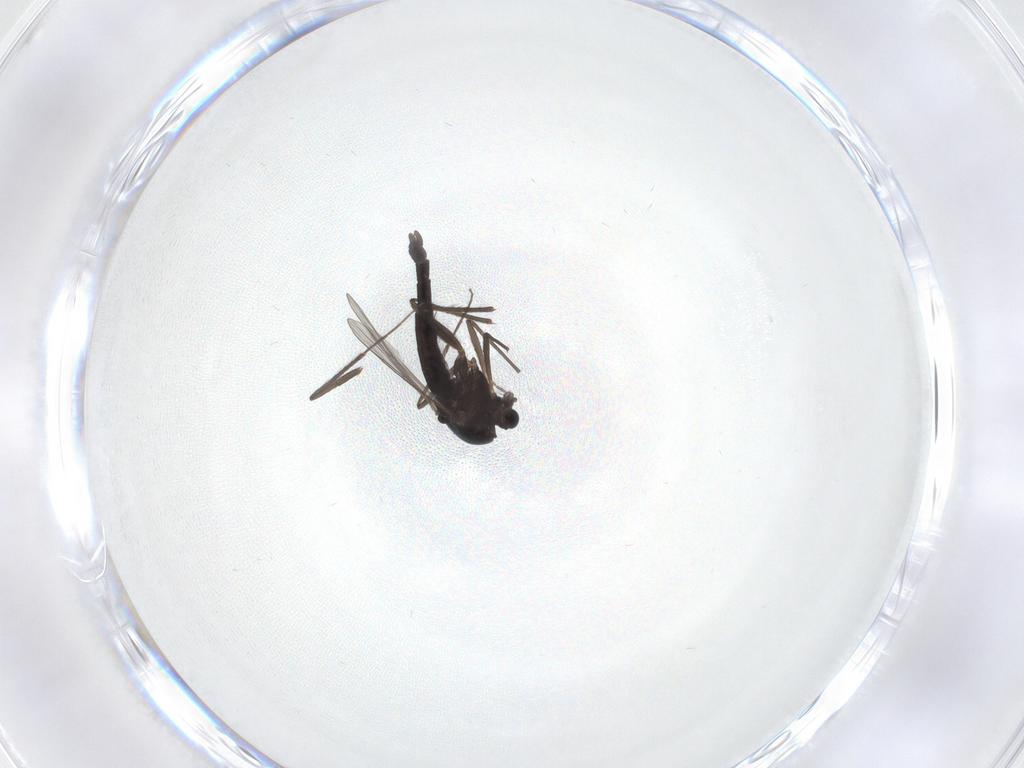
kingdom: Animalia
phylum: Arthropoda
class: Insecta
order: Diptera
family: Chironomidae
